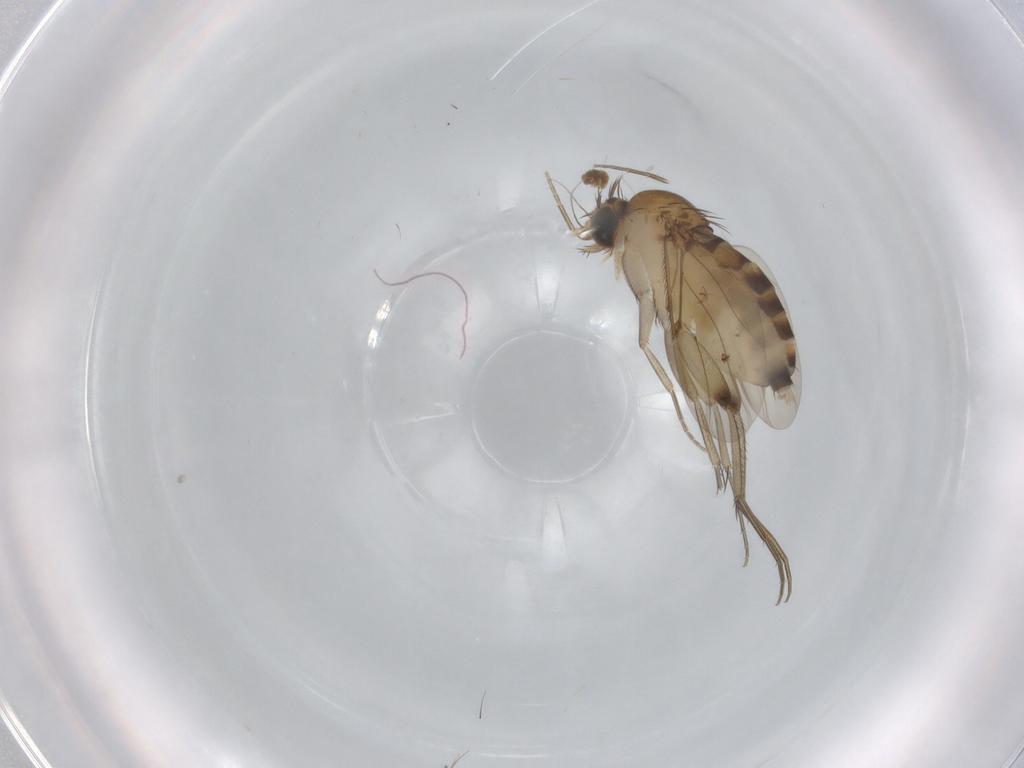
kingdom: Animalia
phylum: Arthropoda
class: Insecta
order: Diptera
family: Phoridae
